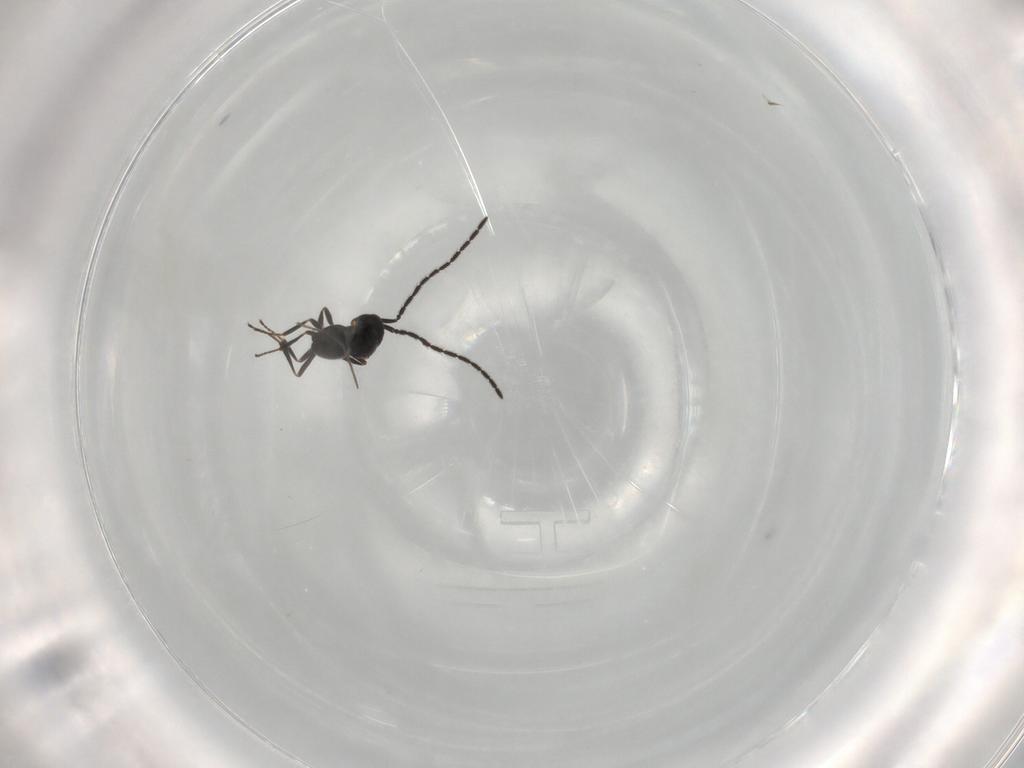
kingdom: Animalia
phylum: Arthropoda
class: Insecta
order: Hymenoptera
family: Scelionidae
